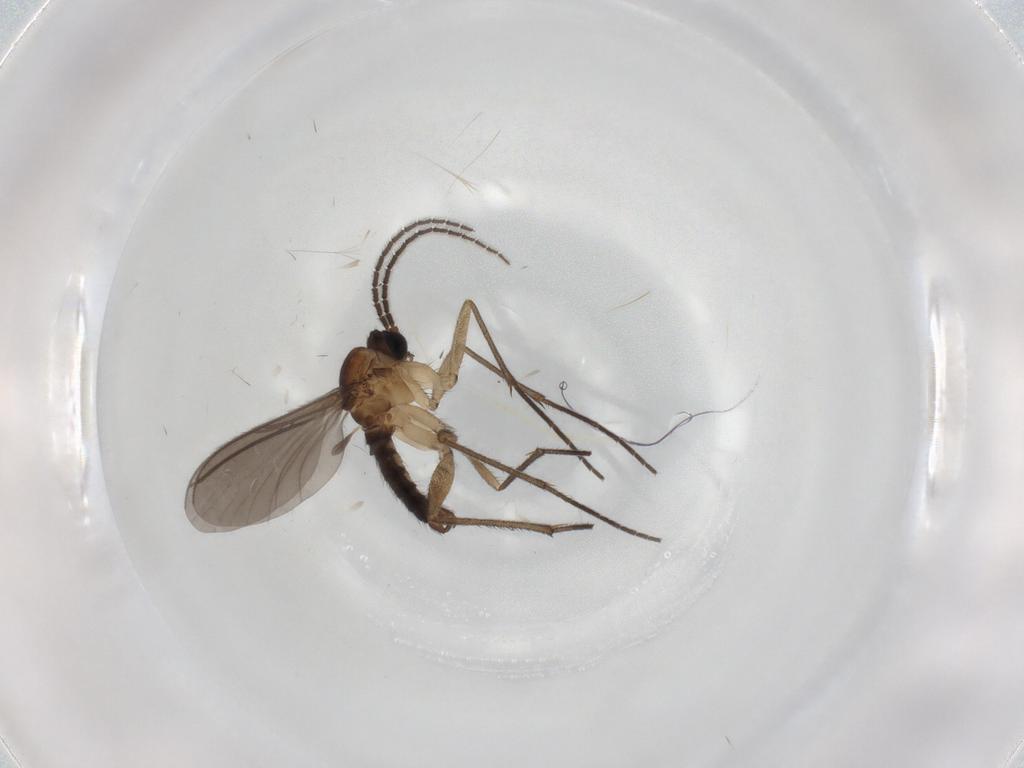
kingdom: Animalia
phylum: Arthropoda
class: Insecta
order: Diptera
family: Cecidomyiidae
